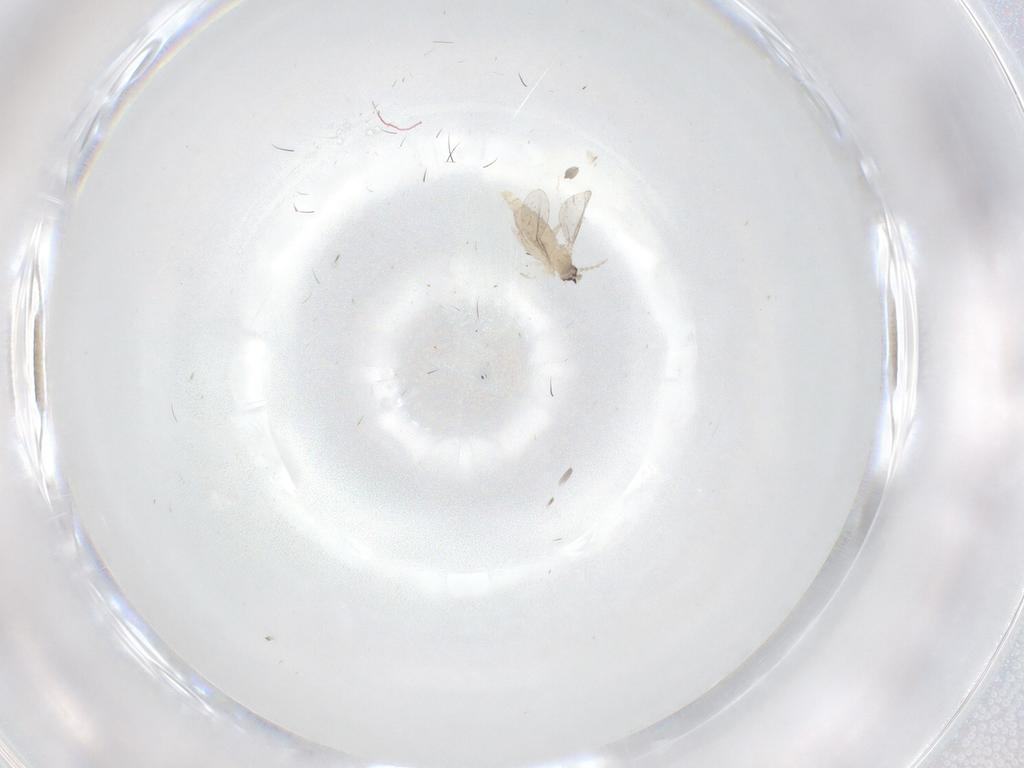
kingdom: Animalia
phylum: Arthropoda
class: Insecta
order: Diptera
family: Cecidomyiidae
